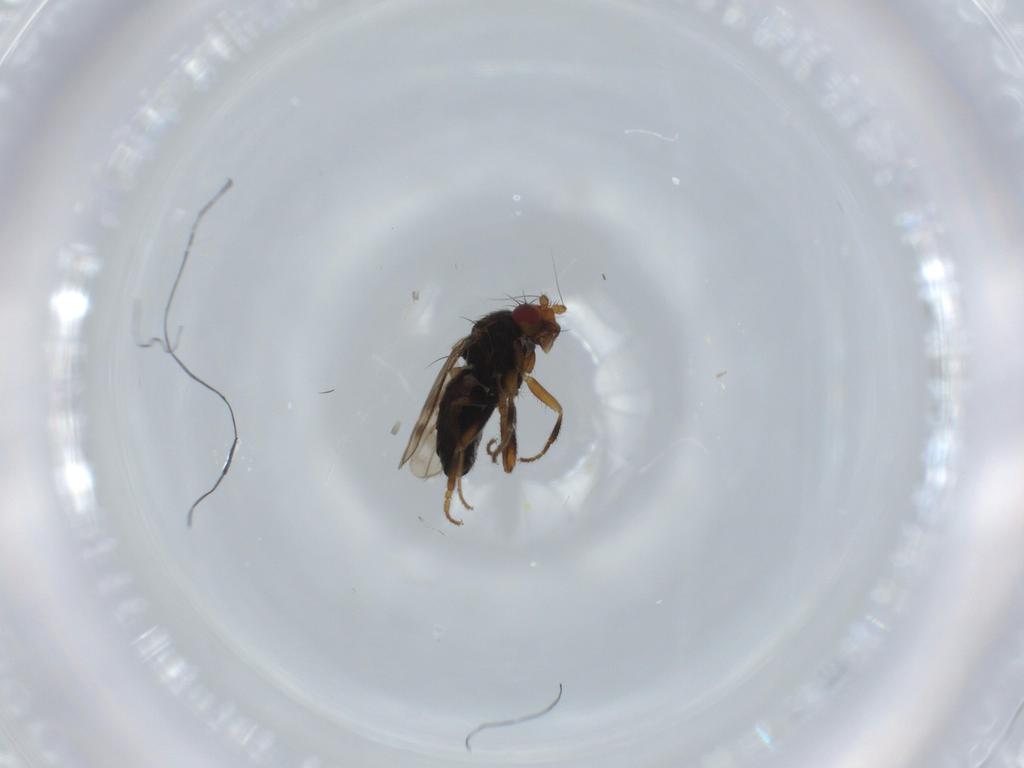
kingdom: Animalia
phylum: Arthropoda
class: Insecta
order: Diptera
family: Sphaeroceridae
